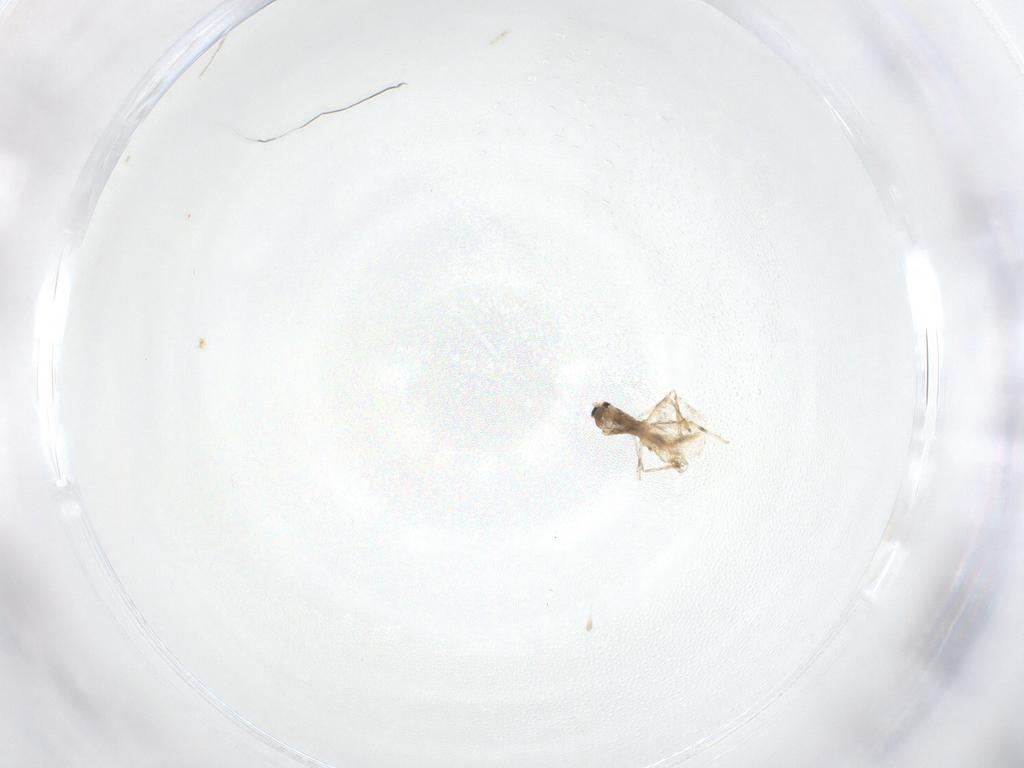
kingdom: Animalia
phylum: Arthropoda
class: Insecta
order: Diptera
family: Cecidomyiidae
